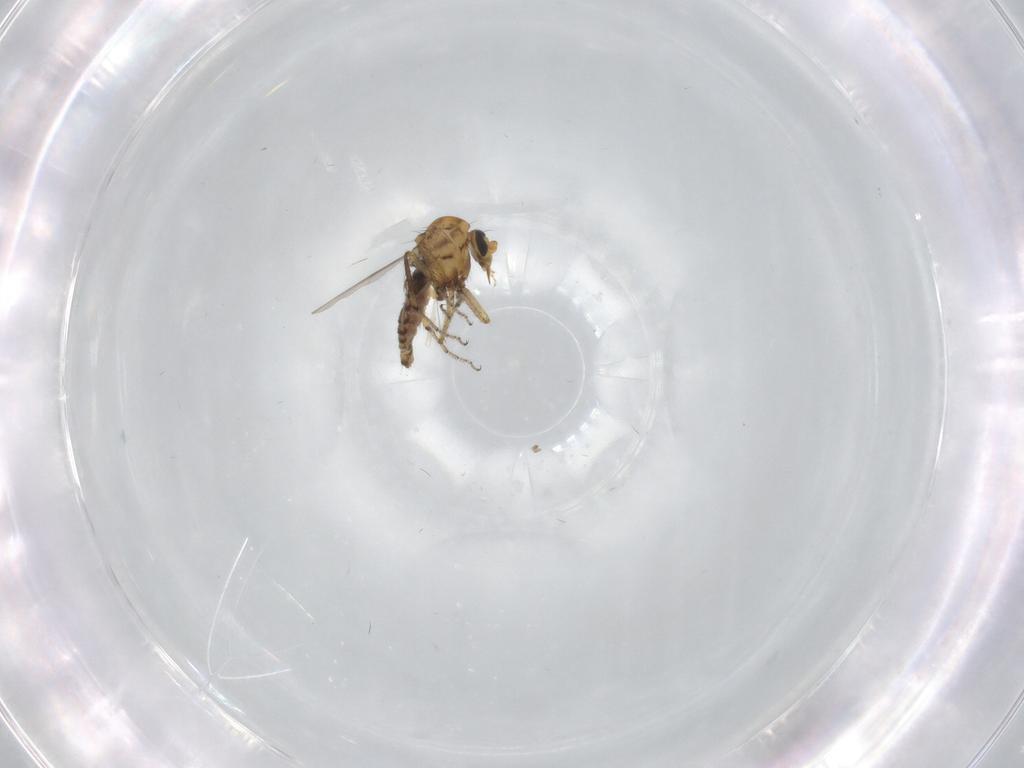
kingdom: Animalia
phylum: Arthropoda
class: Insecta
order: Diptera
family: Ceratopogonidae
